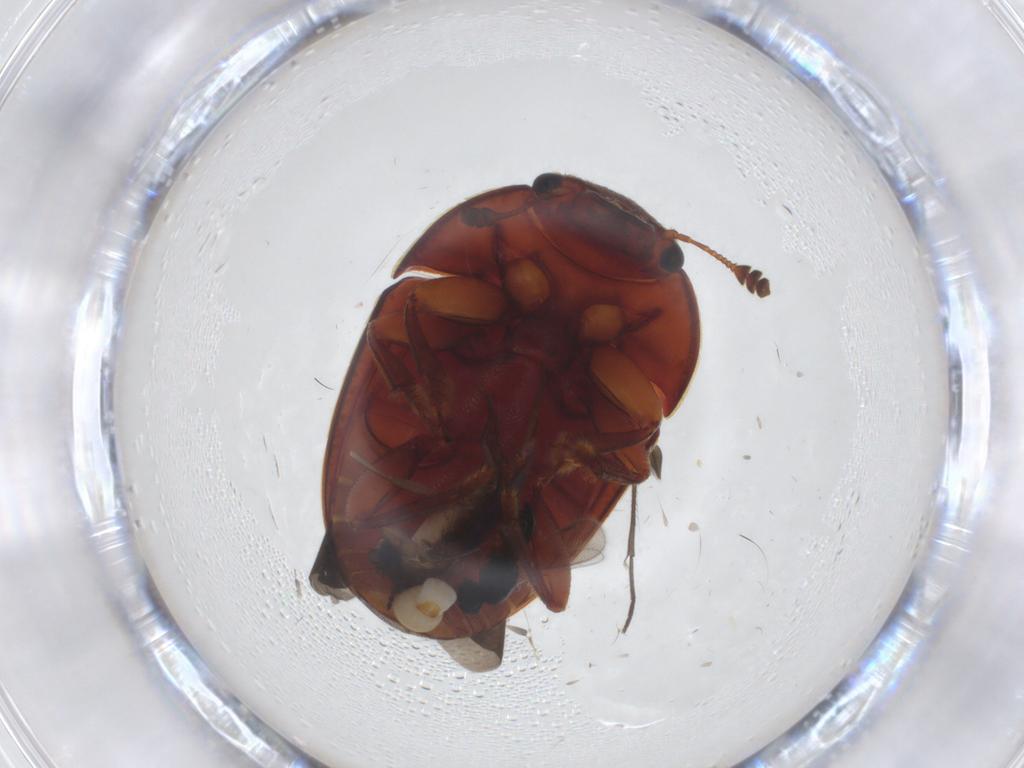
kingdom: Animalia
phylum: Arthropoda
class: Insecta
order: Coleoptera
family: Nitidulidae
